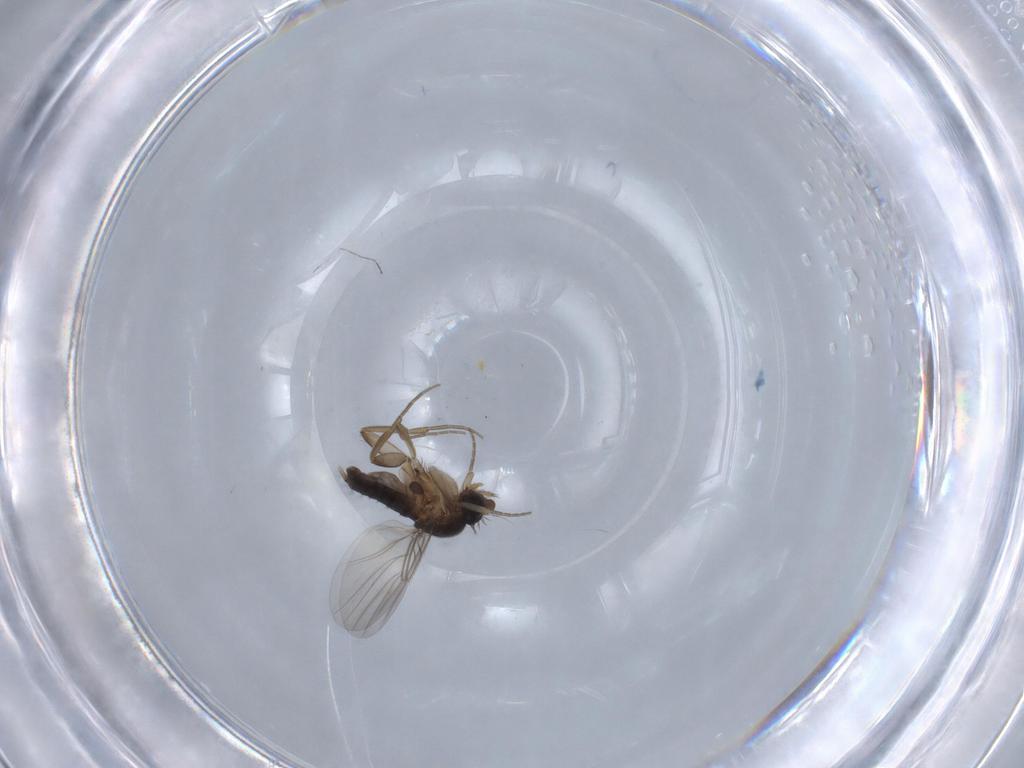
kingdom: Animalia
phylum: Arthropoda
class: Insecta
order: Diptera
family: Phoridae
